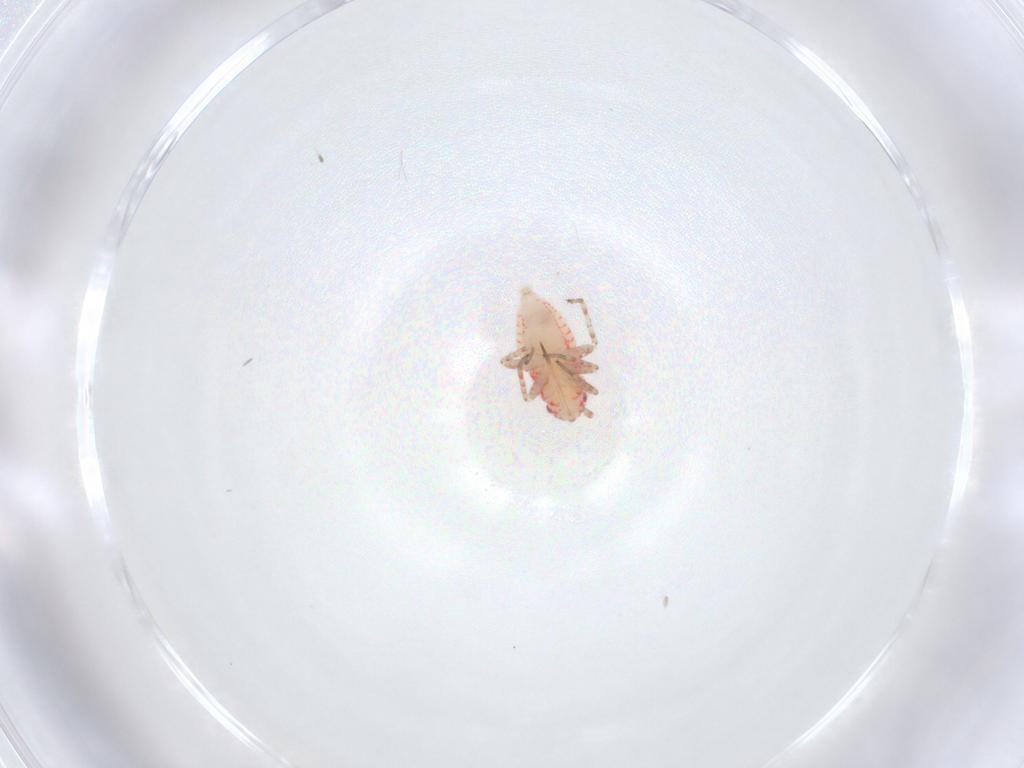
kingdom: Animalia
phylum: Arthropoda
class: Insecta
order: Hemiptera
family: Miridae
